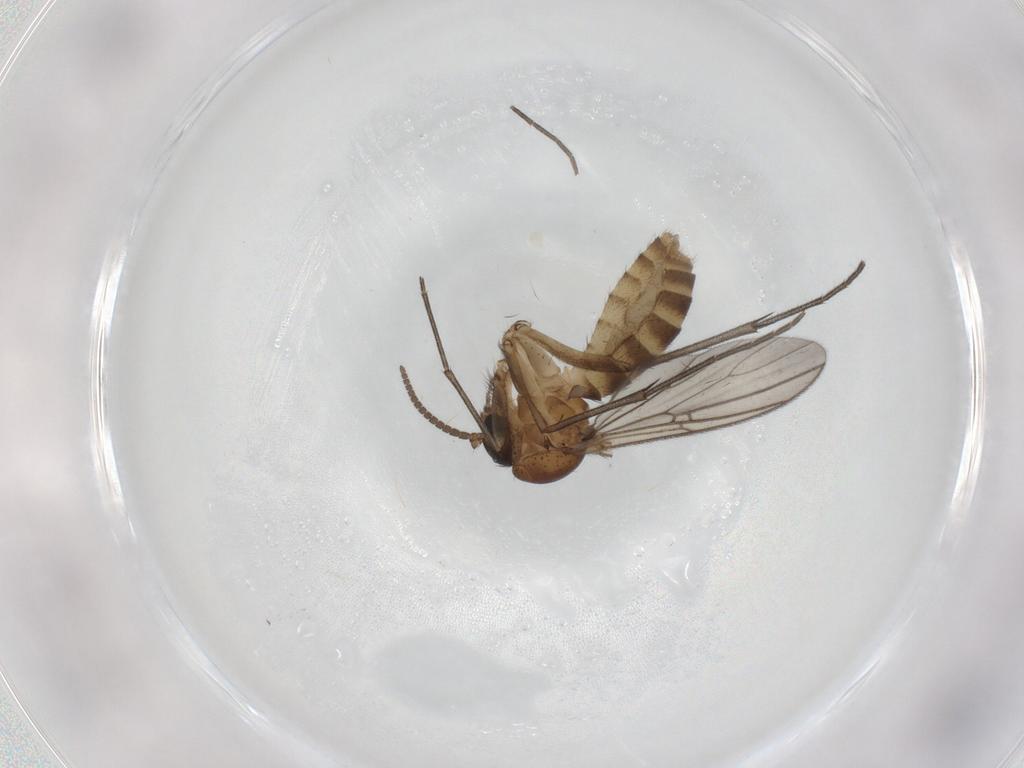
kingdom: Animalia
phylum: Arthropoda
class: Insecta
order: Diptera
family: Mycetophilidae
